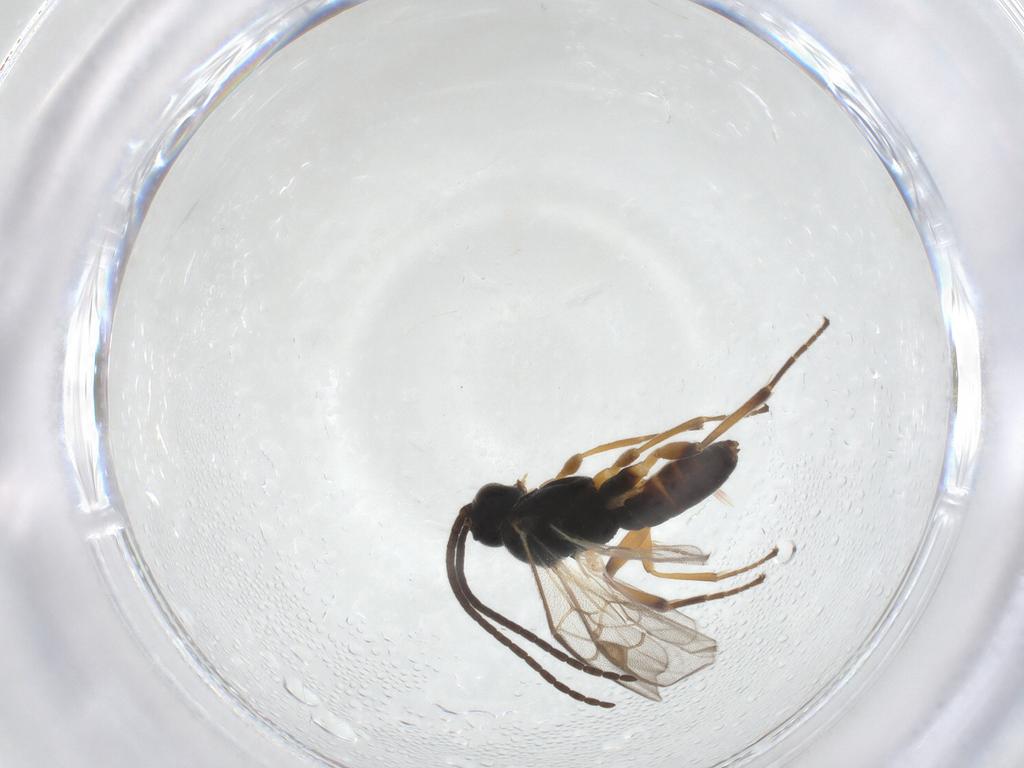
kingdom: Animalia
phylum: Arthropoda
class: Insecta
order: Hymenoptera
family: Braconidae
